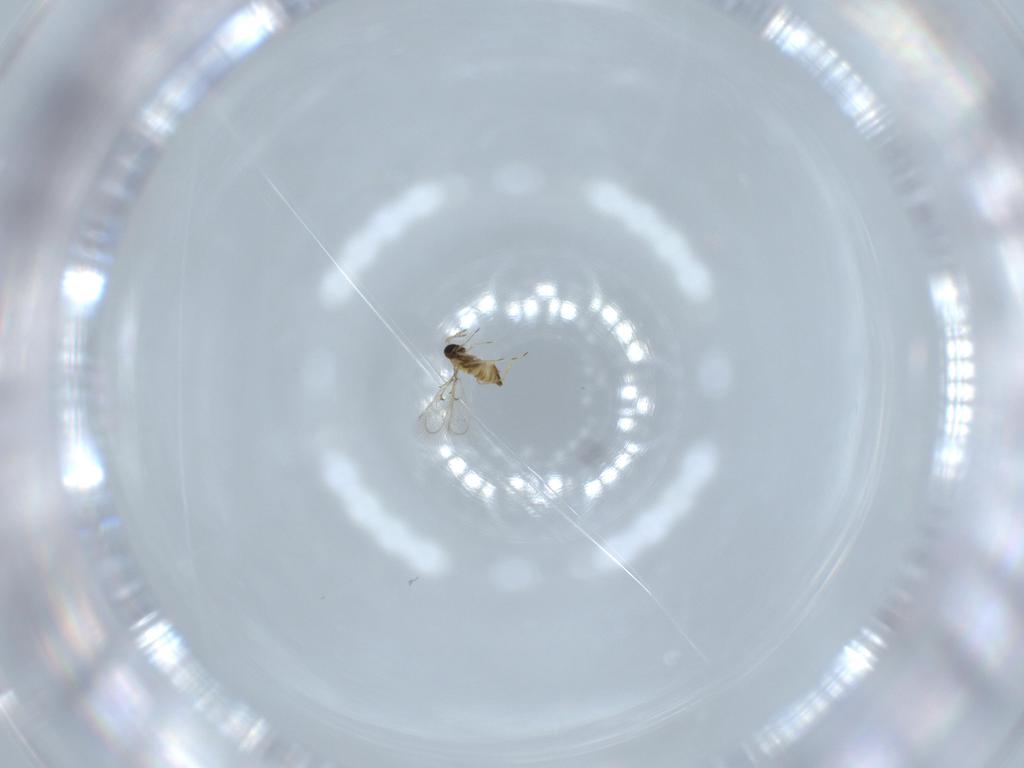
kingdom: Animalia
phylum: Arthropoda
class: Insecta
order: Hymenoptera
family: Trichogrammatidae
